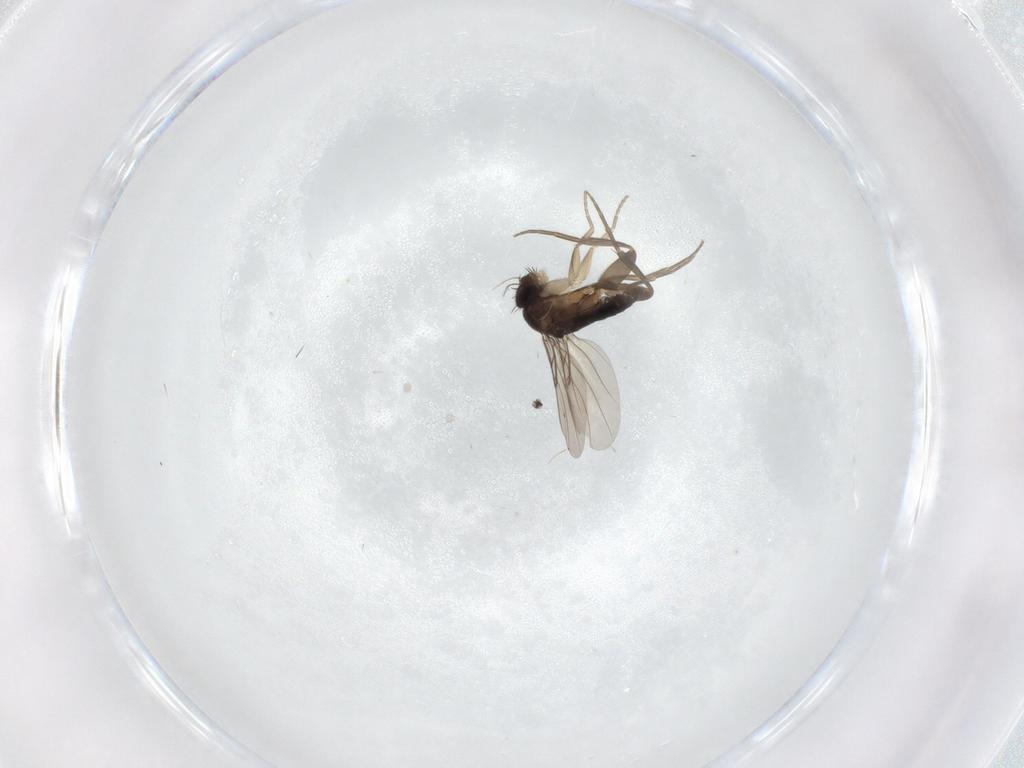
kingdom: Animalia
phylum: Arthropoda
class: Insecta
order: Diptera
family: Phoridae
